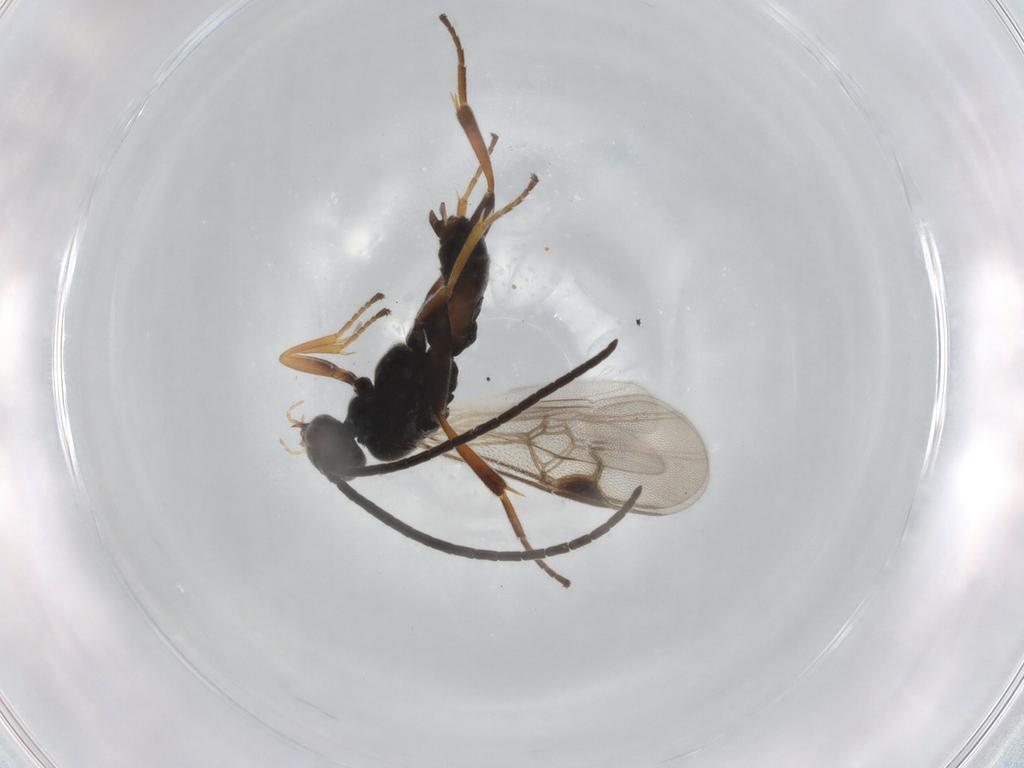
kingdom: Animalia
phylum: Arthropoda
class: Insecta
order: Hymenoptera
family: Braconidae
